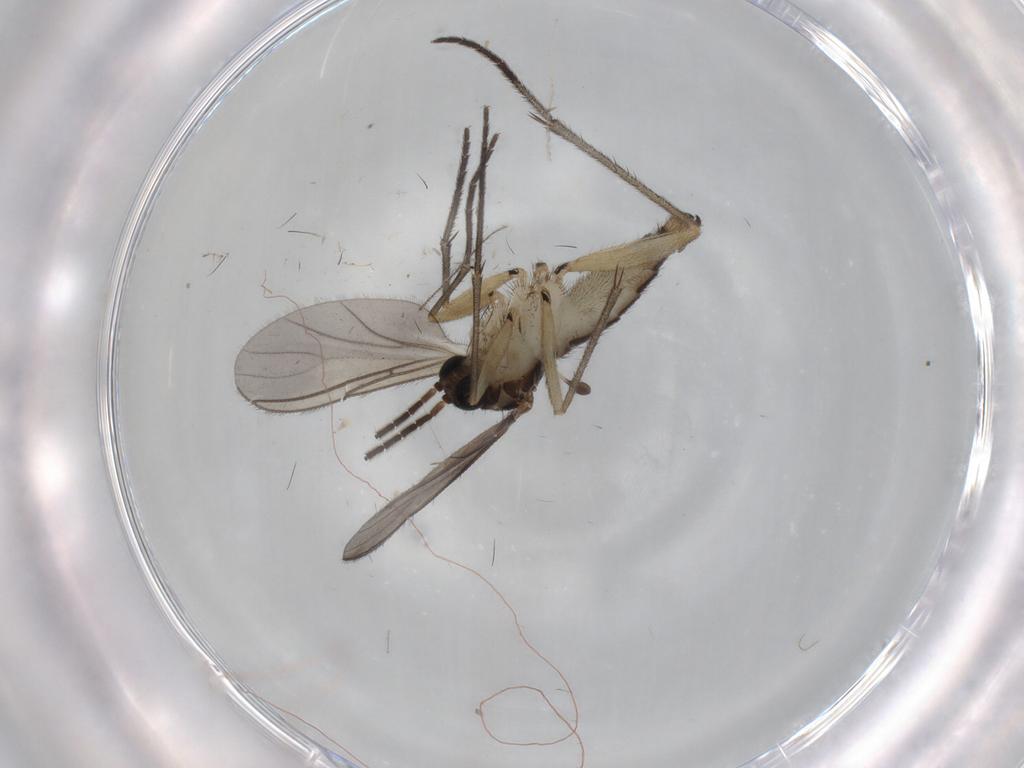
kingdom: Animalia
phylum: Arthropoda
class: Insecta
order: Diptera
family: Sciaridae
